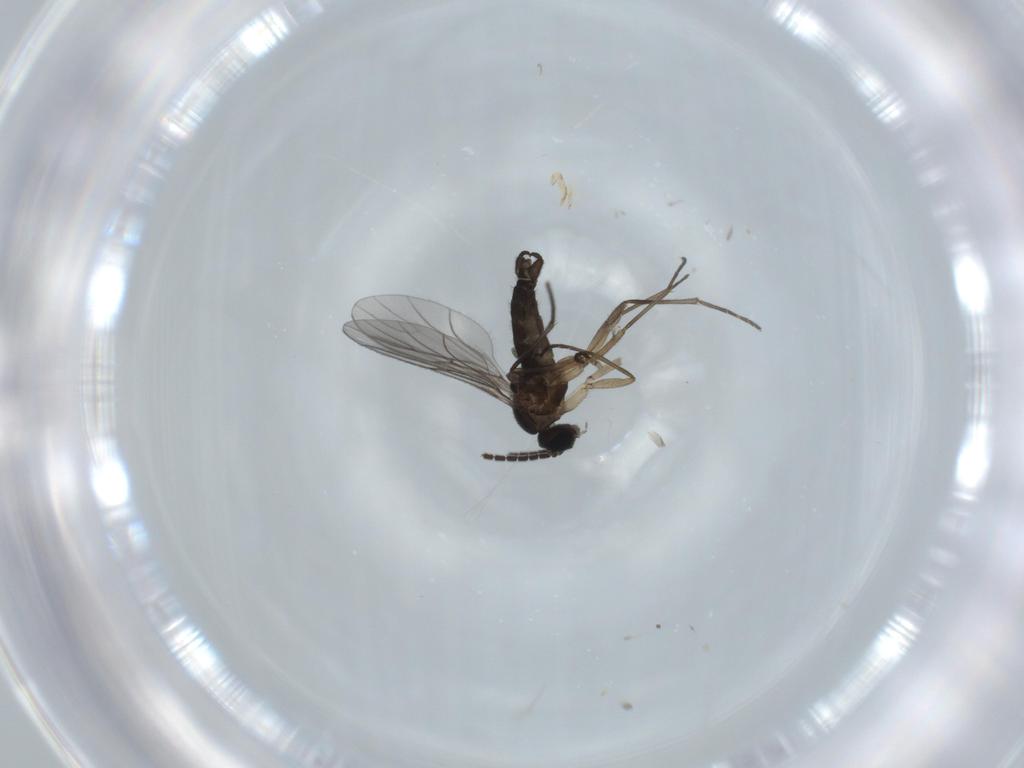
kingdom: Animalia
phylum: Arthropoda
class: Insecta
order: Diptera
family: Sciaridae
